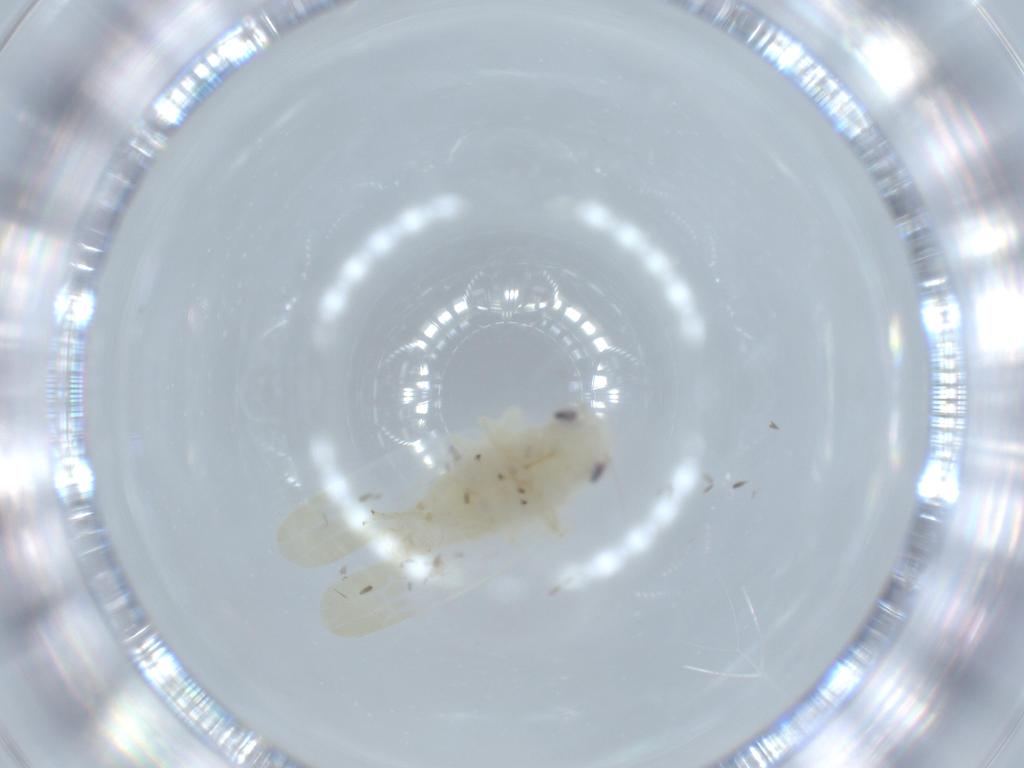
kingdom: Animalia
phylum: Arthropoda
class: Insecta
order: Hemiptera
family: Cicadellidae
